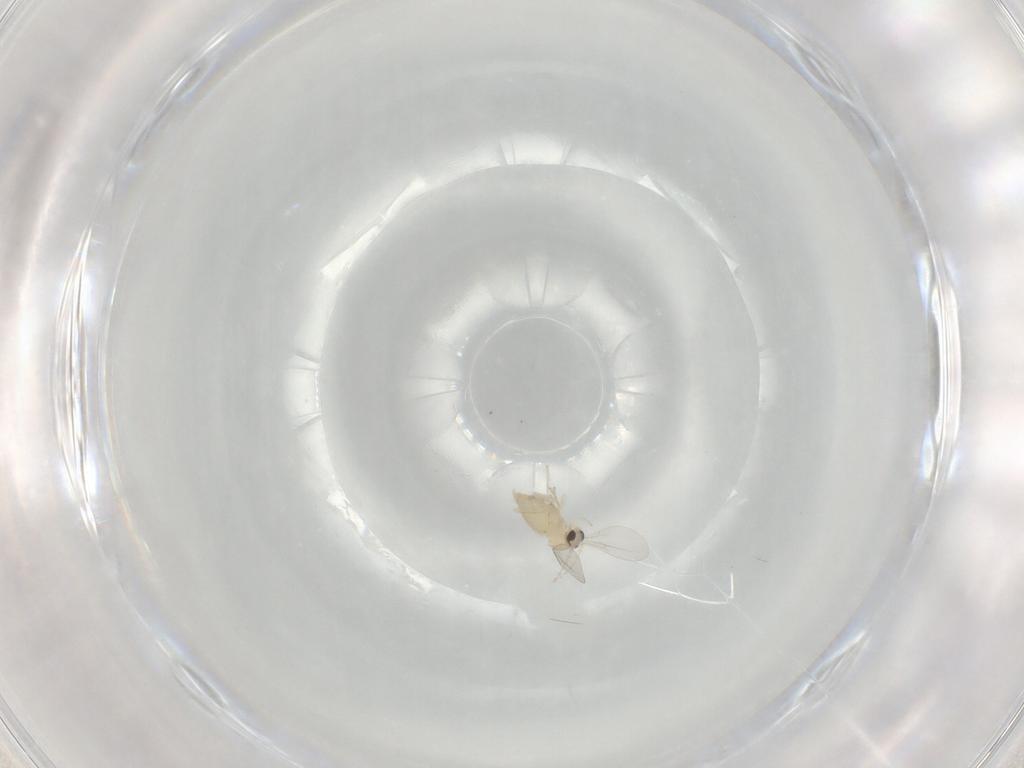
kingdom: Animalia
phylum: Arthropoda
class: Insecta
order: Diptera
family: Cecidomyiidae
